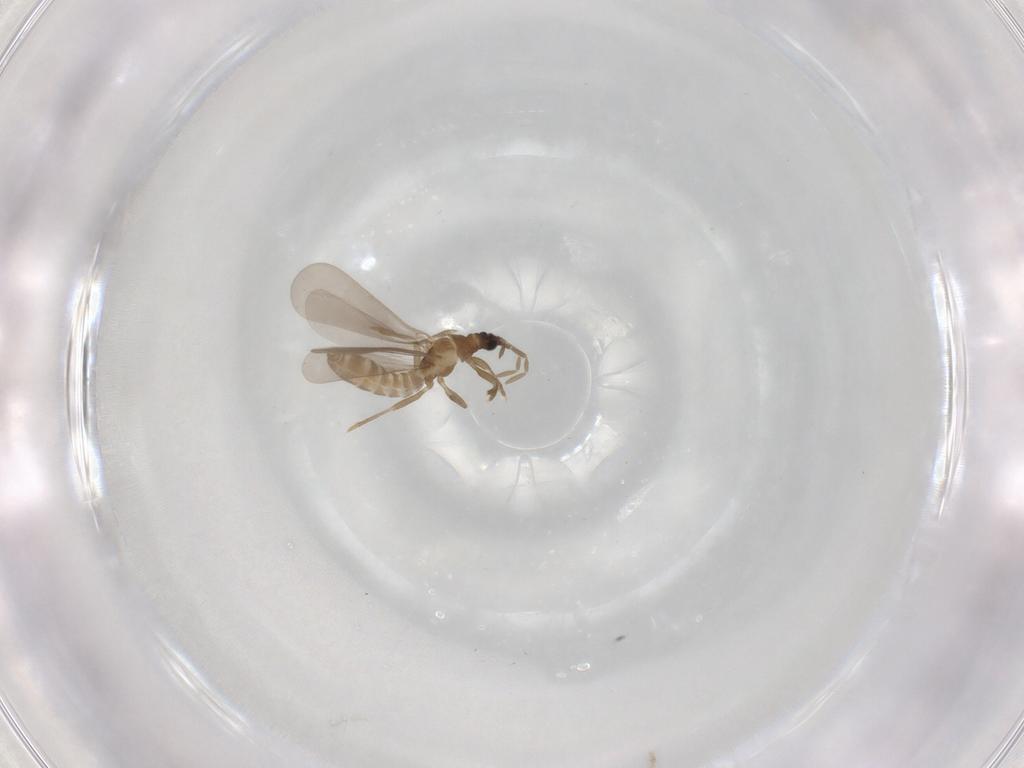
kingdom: Animalia
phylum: Arthropoda
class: Insecta
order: Hemiptera
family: Enicocephalidae
